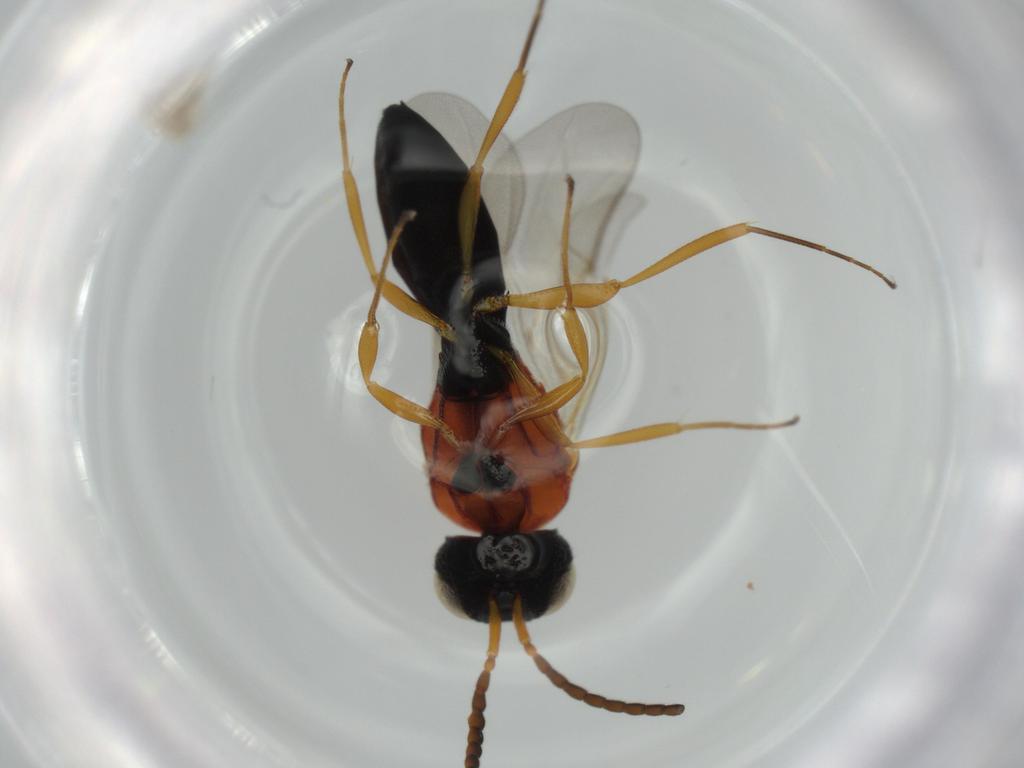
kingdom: Animalia
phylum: Arthropoda
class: Insecta
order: Hymenoptera
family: Scelionidae
